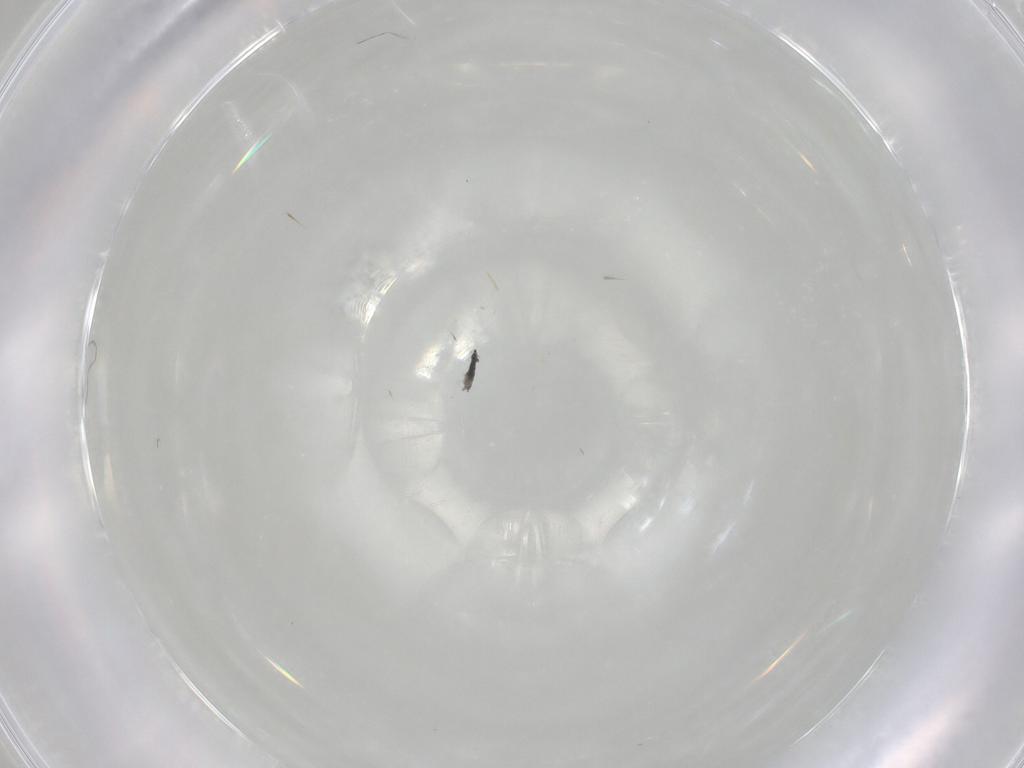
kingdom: Animalia
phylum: Arthropoda
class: Insecta
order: Hymenoptera
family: Mymaridae
